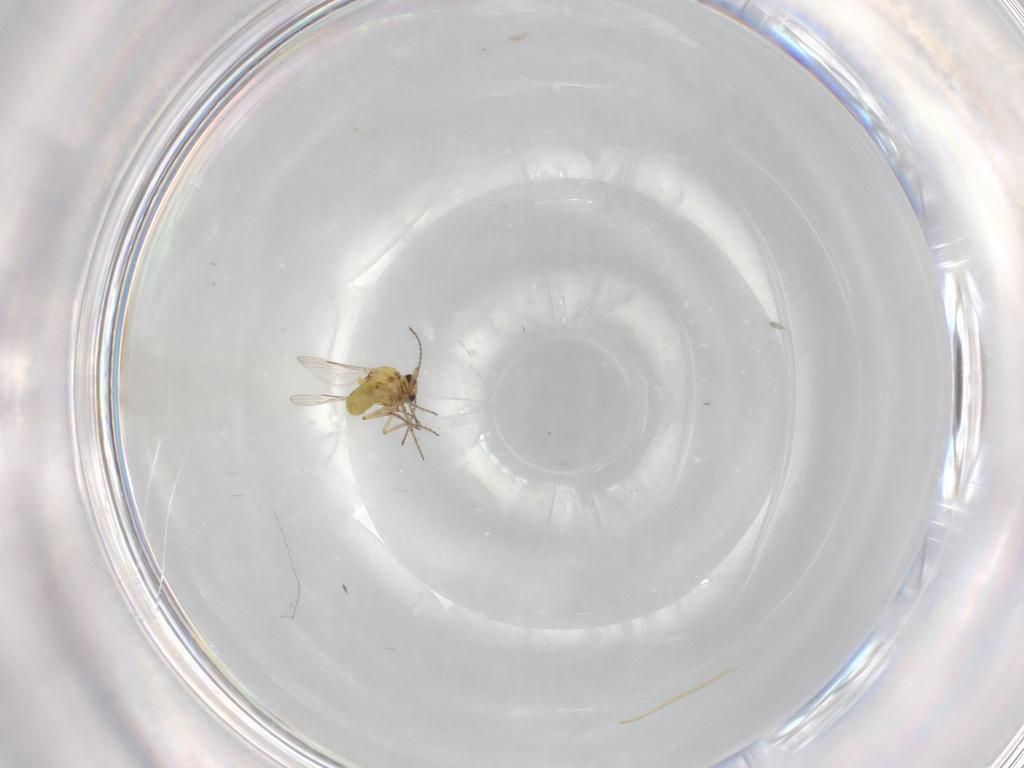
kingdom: Animalia
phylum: Arthropoda
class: Insecta
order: Diptera
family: Ceratopogonidae
